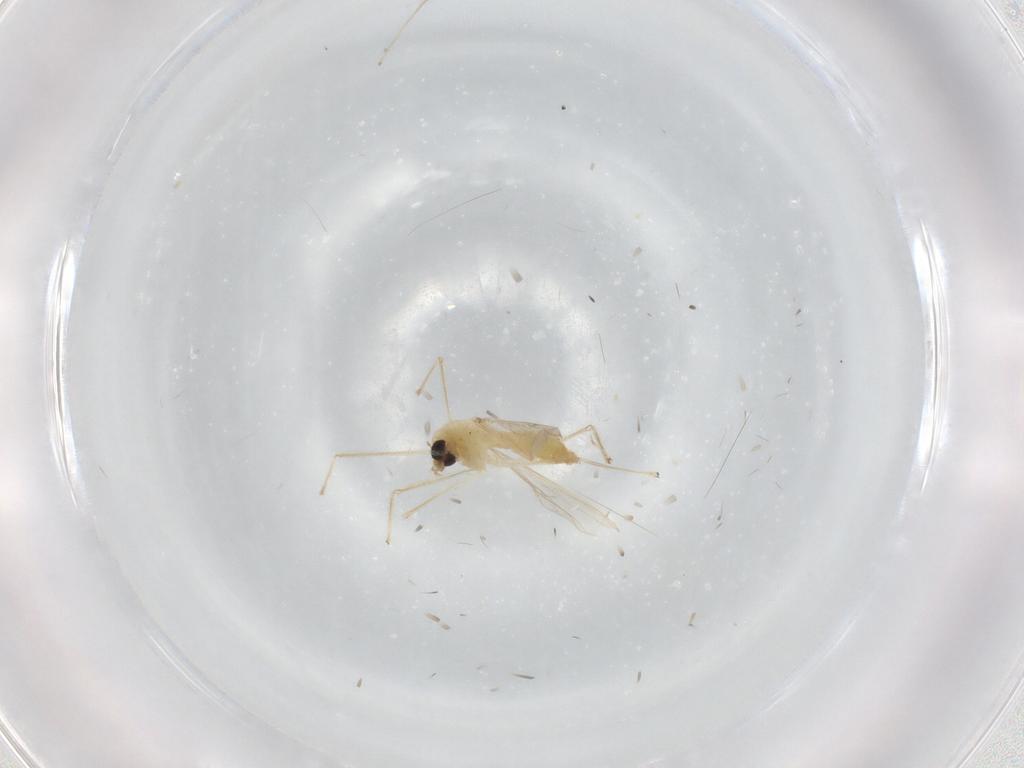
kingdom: Animalia
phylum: Arthropoda
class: Insecta
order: Diptera
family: Chironomidae
